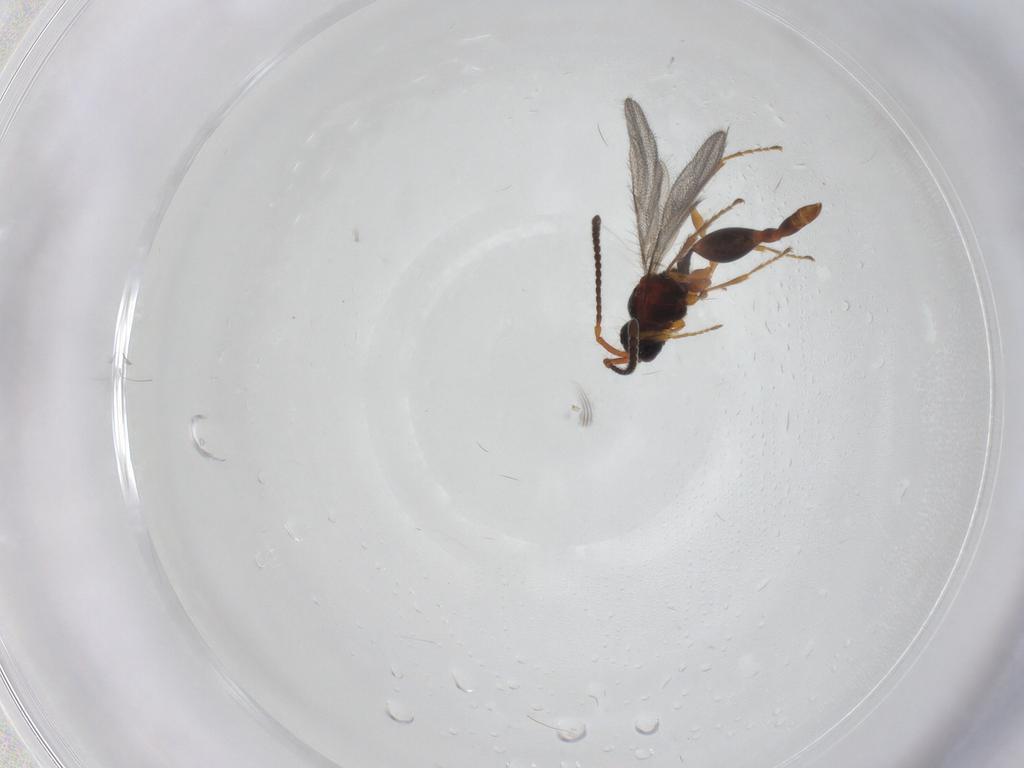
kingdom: Animalia
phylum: Arthropoda
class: Insecta
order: Hymenoptera
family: Diapriidae
